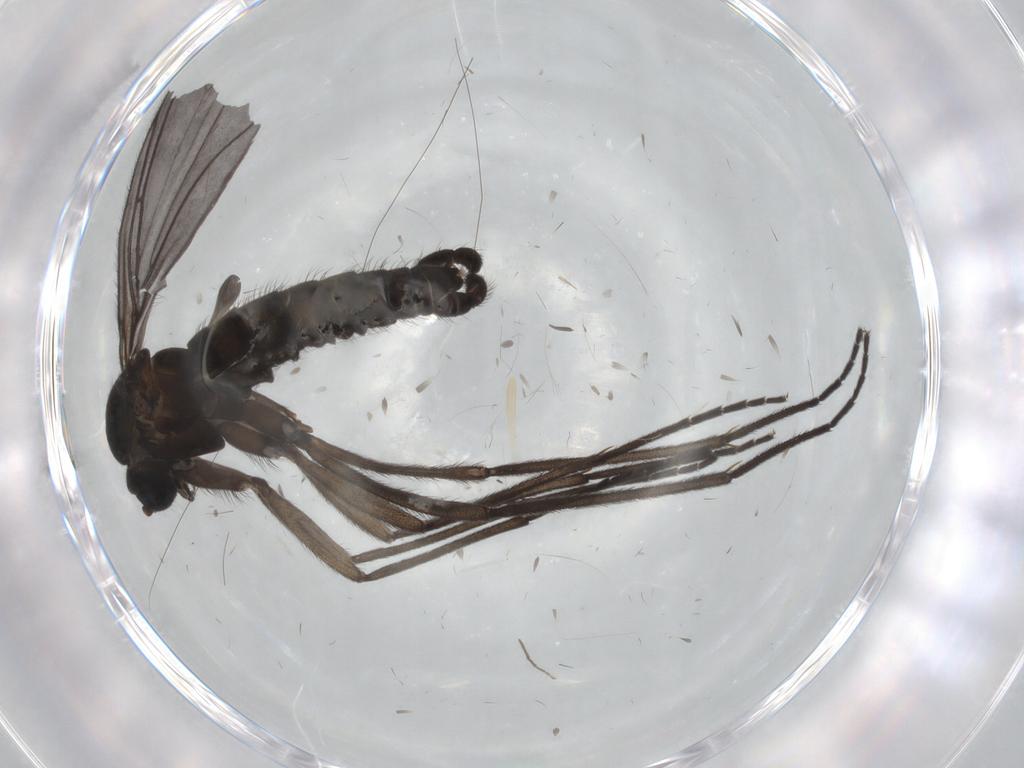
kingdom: Animalia
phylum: Arthropoda
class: Insecta
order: Diptera
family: Sciaridae
